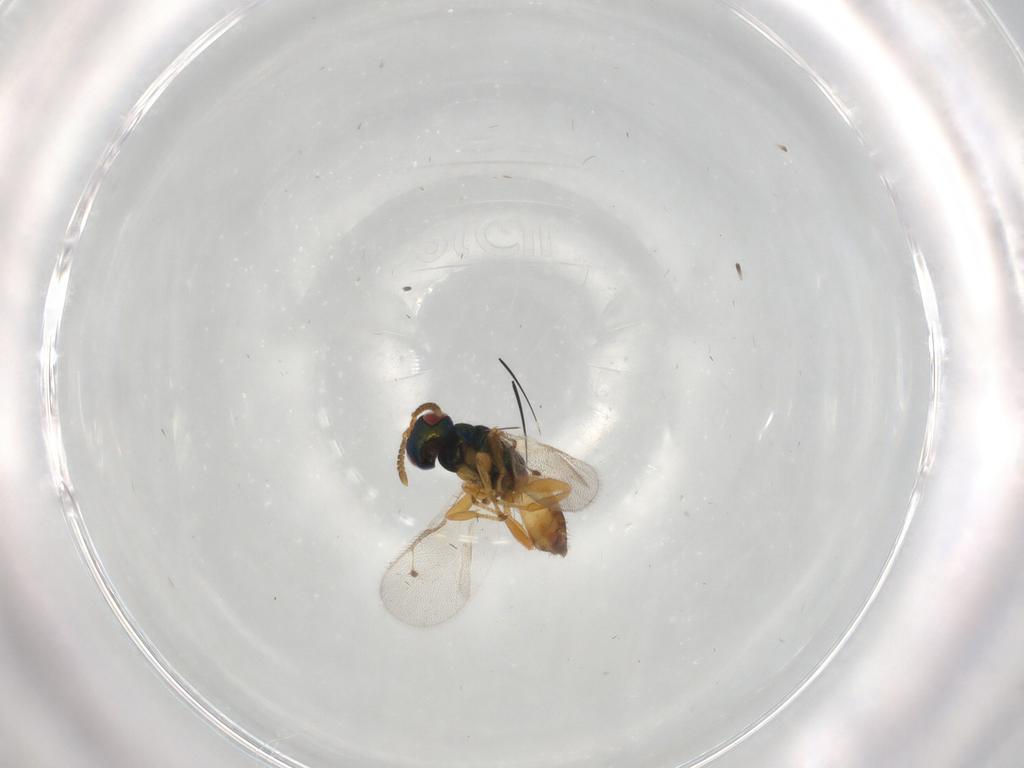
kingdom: Animalia
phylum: Arthropoda
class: Insecta
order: Hymenoptera
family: Pteromalidae
